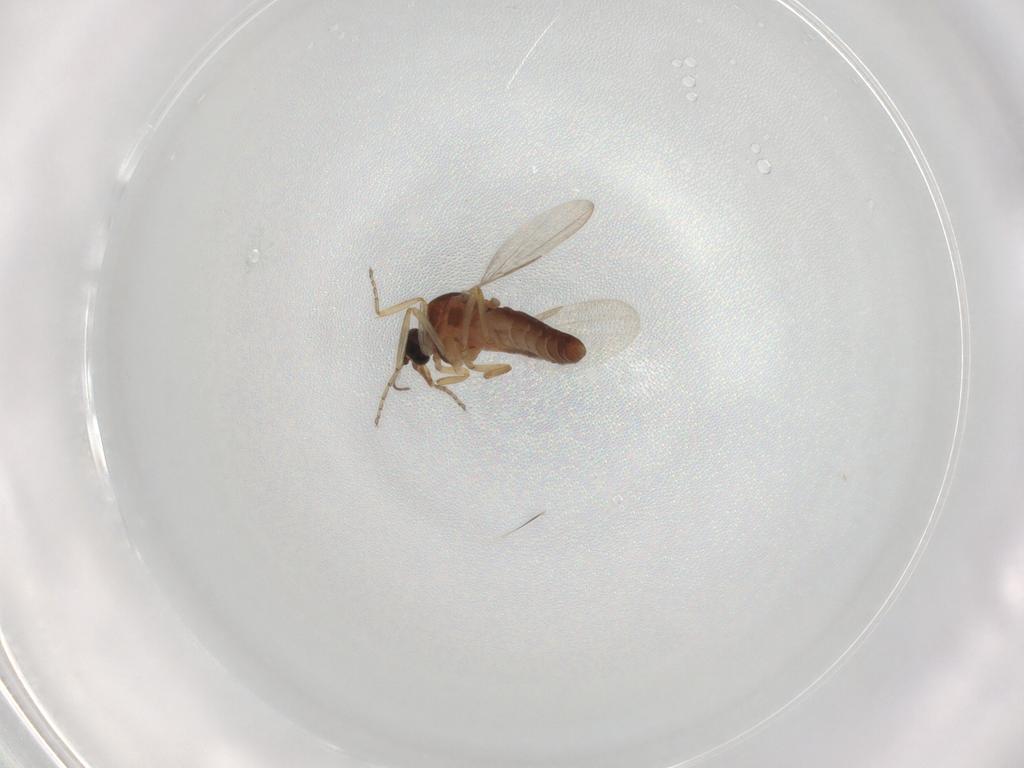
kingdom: Animalia
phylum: Arthropoda
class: Insecta
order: Diptera
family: Ceratopogonidae
